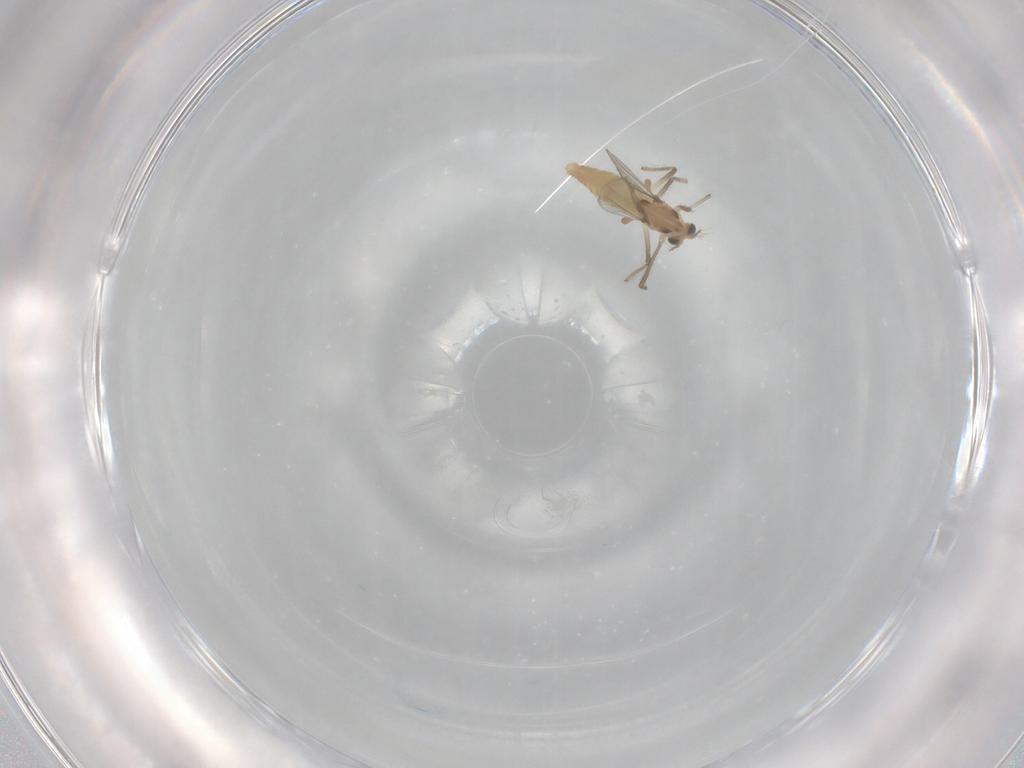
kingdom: Animalia
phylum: Arthropoda
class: Insecta
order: Diptera
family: Chironomidae
